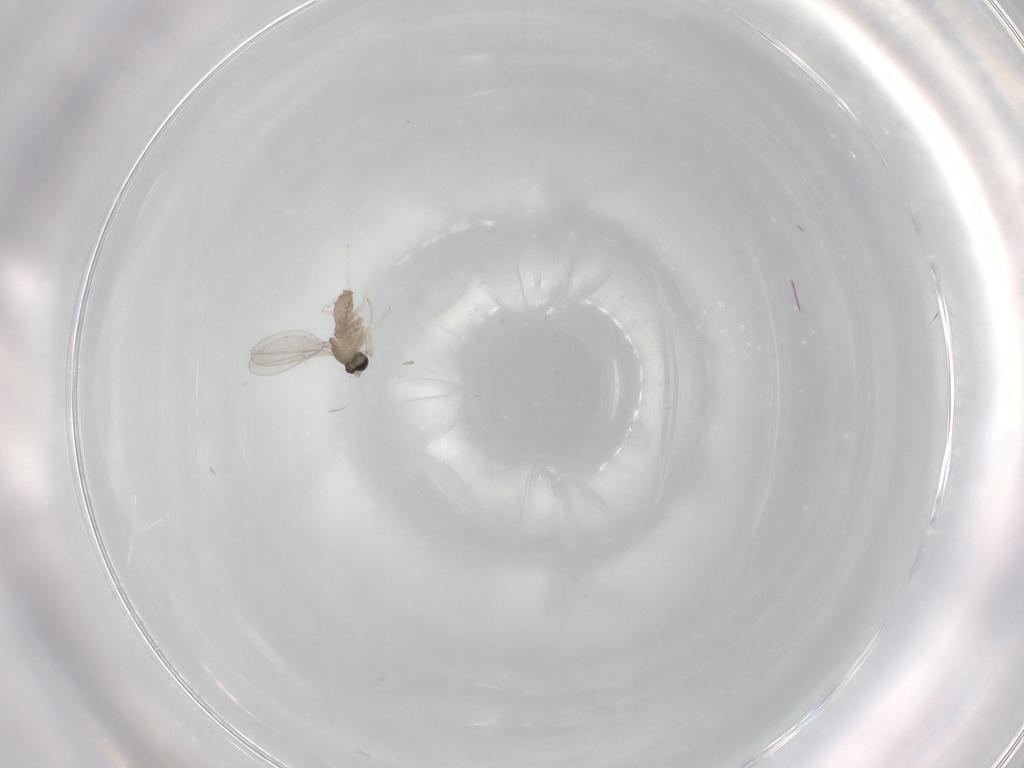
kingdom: Animalia
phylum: Arthropoda
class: Insecta
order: Diptera
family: Cecidomyiidae
